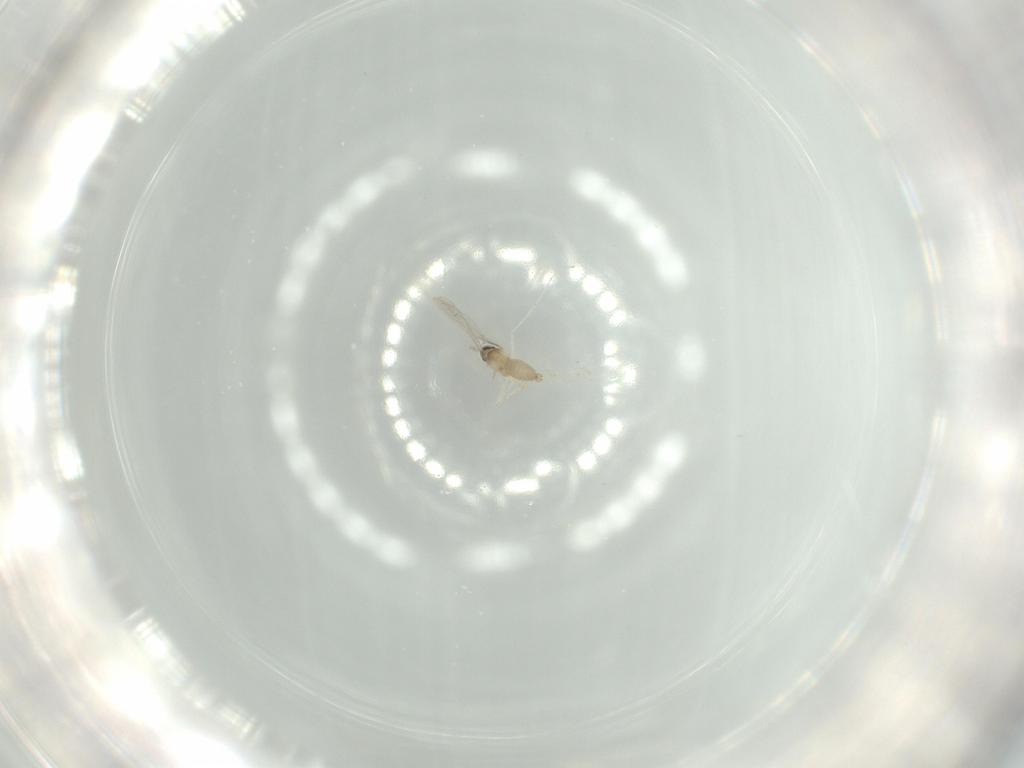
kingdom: Animalia
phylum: Arthropoda
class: Insecta
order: Diptera
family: Cecidomyiidae
